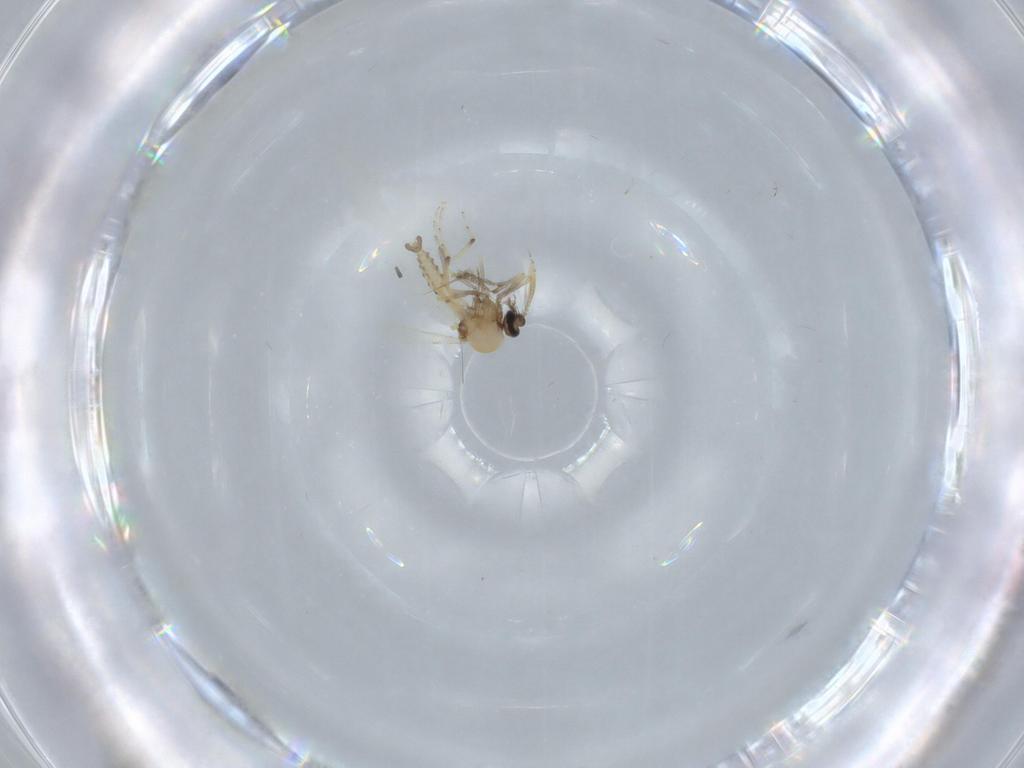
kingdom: Animalia
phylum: Arthropoda
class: Insecta
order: Diptera
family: Ceratopogonidae
